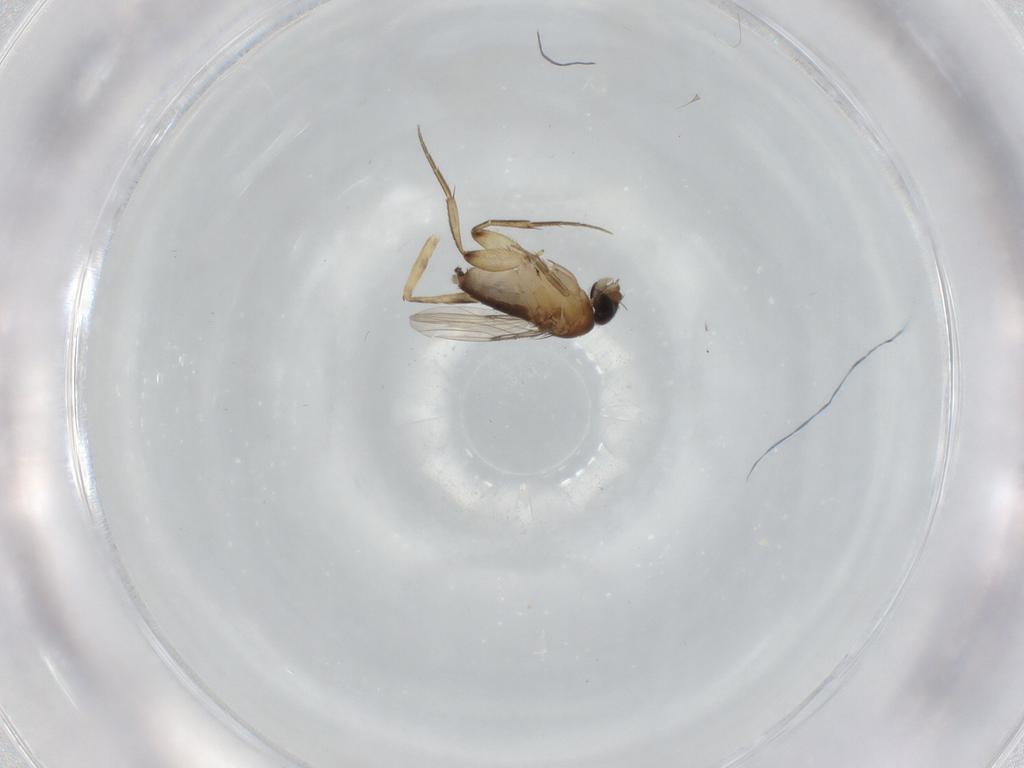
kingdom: Animalia
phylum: Arthropoda
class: Insecta
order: Diptera
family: Phoridae
